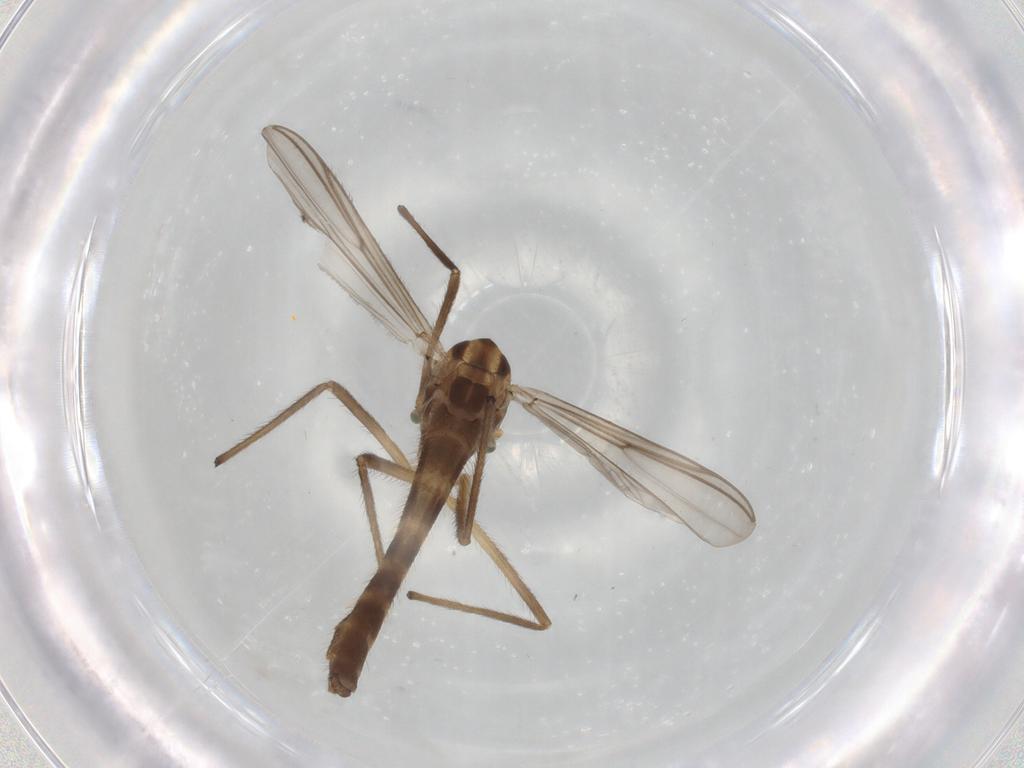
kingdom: Animalia
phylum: Arthropoda
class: Insecta
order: Diptera
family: Chironomidae
